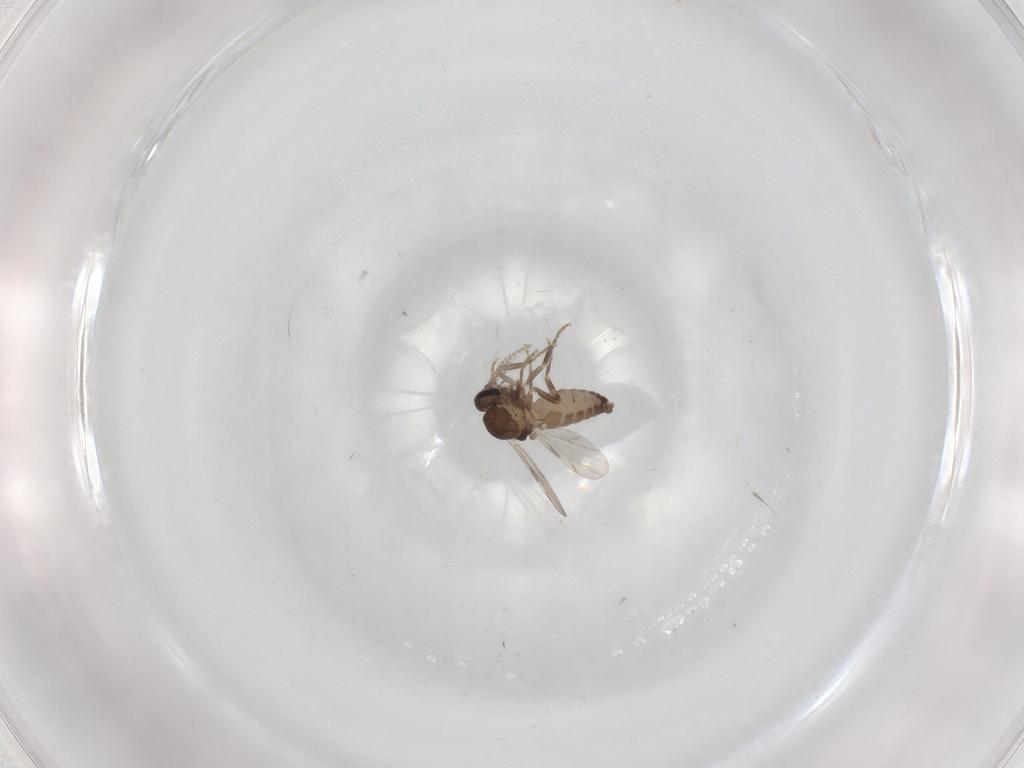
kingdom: Animalia
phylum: Arthropoda
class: Insecta
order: Diptera
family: Ceratopogonidae
